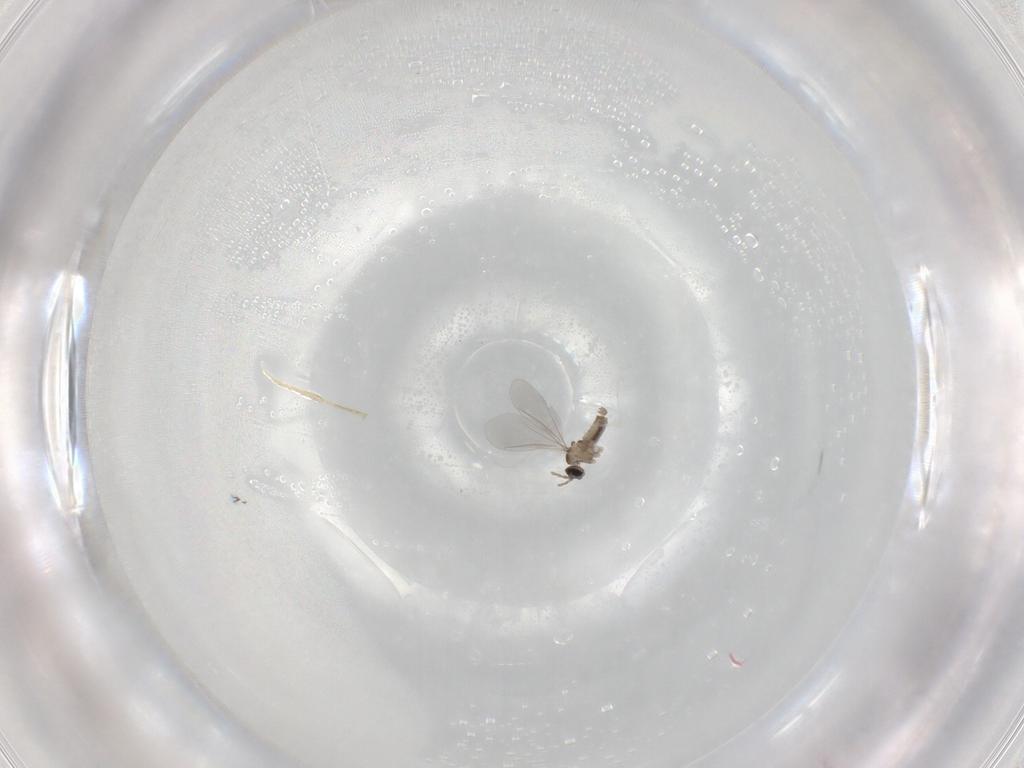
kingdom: Animalia
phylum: Arthropoda
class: Insecta
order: Diptera
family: Cecidomyiidae
